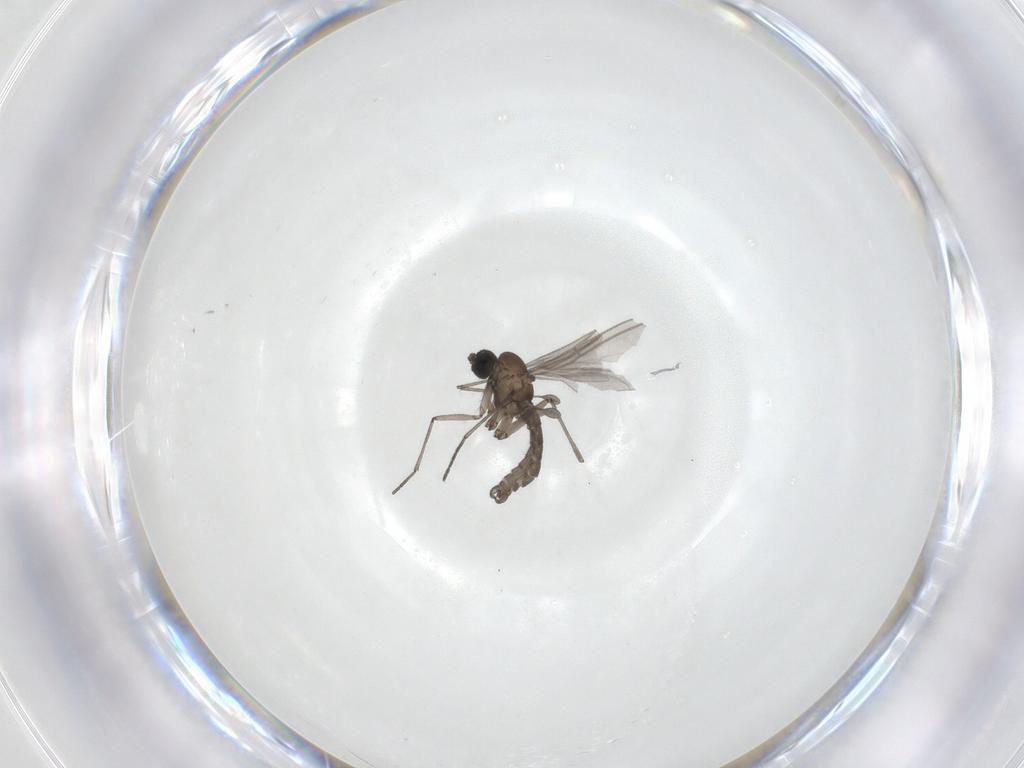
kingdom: Animalia
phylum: Arthropoda
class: Insecta
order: Diptera
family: Sciaridae
